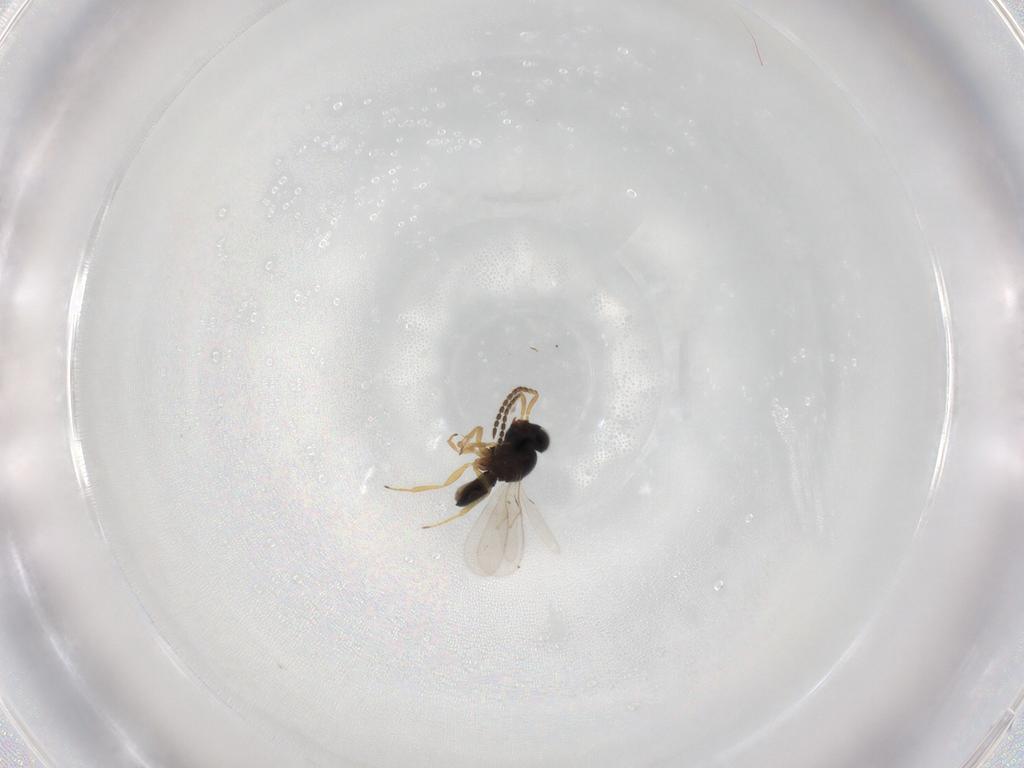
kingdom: Animalia
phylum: Arthropoda
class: Insecta
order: Hymenoptera
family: Scelionidae
